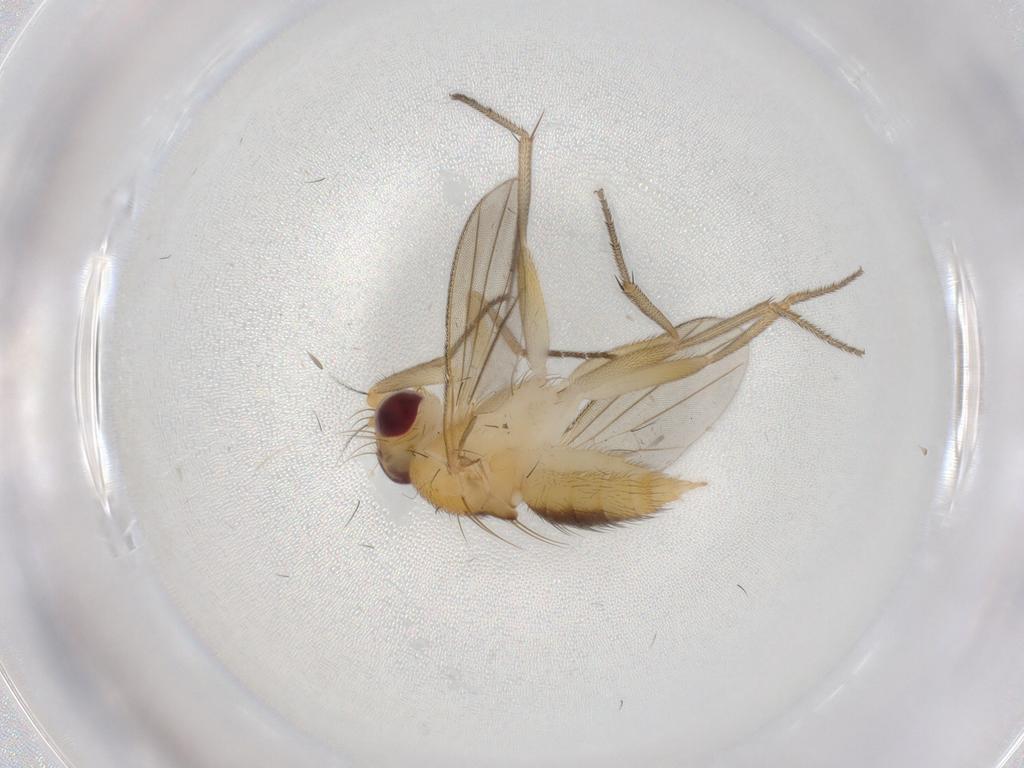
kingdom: Animalia
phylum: Arthropoda
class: Insecta
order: Diptera
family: Clusiidae
